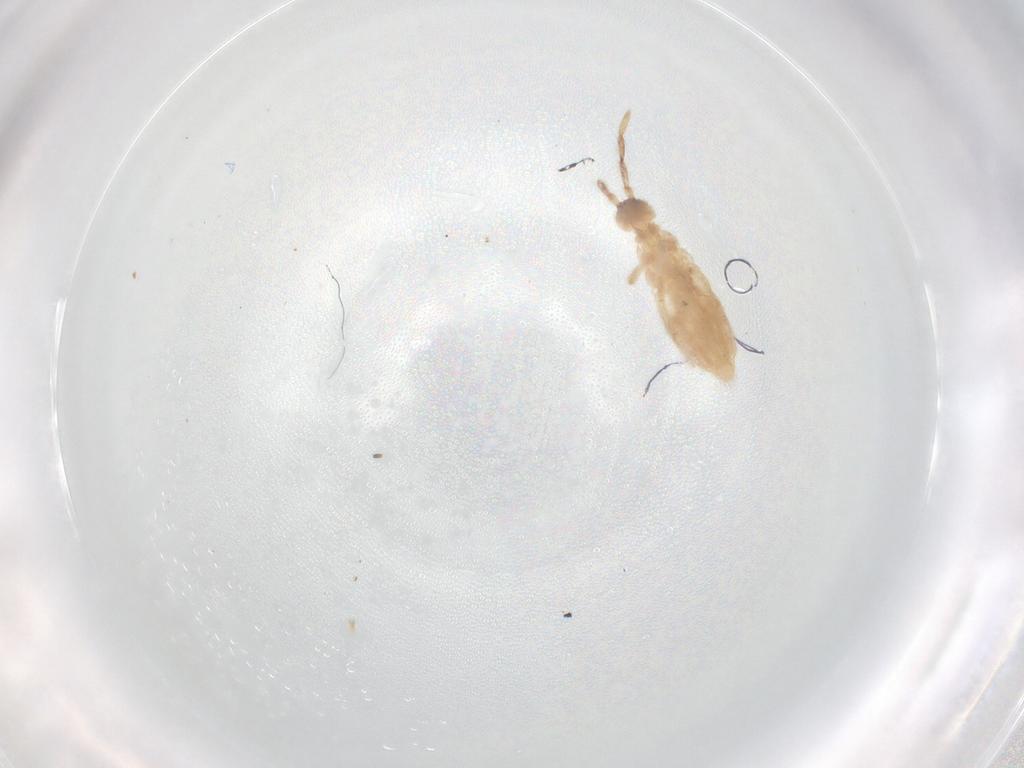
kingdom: Animalia
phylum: Arthropoda
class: Collembola
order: Entomobryomorpha
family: Entomobryidae
